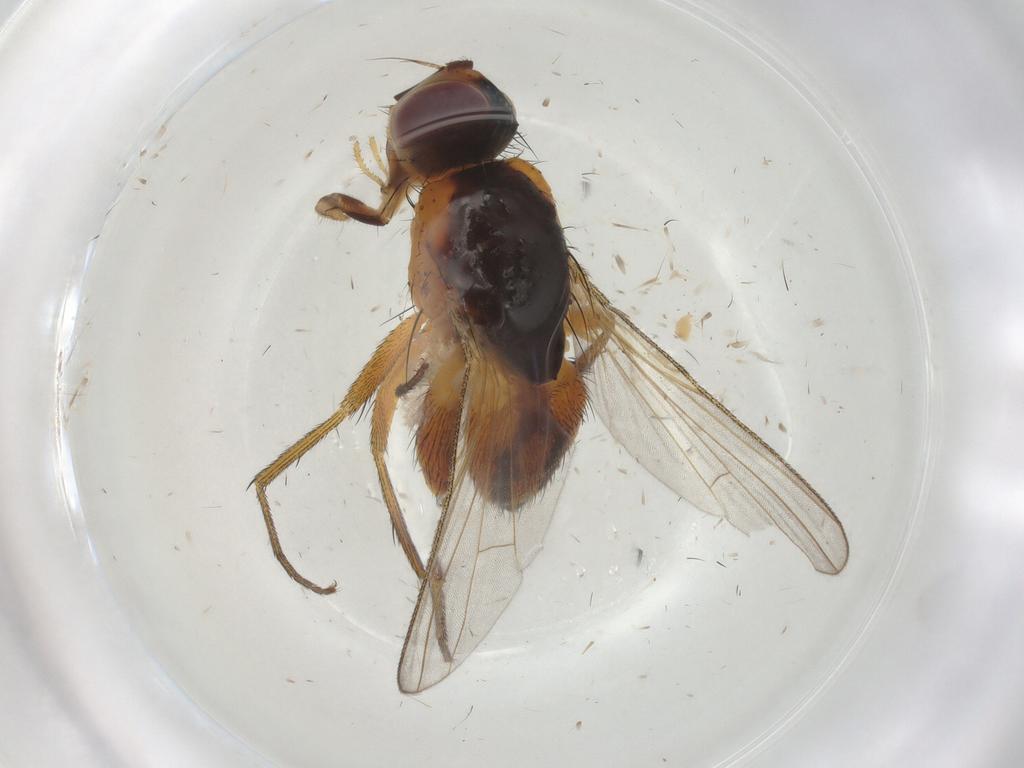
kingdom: Animalia
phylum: Arthropoda
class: Insecta
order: Diptera
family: Muscidae
